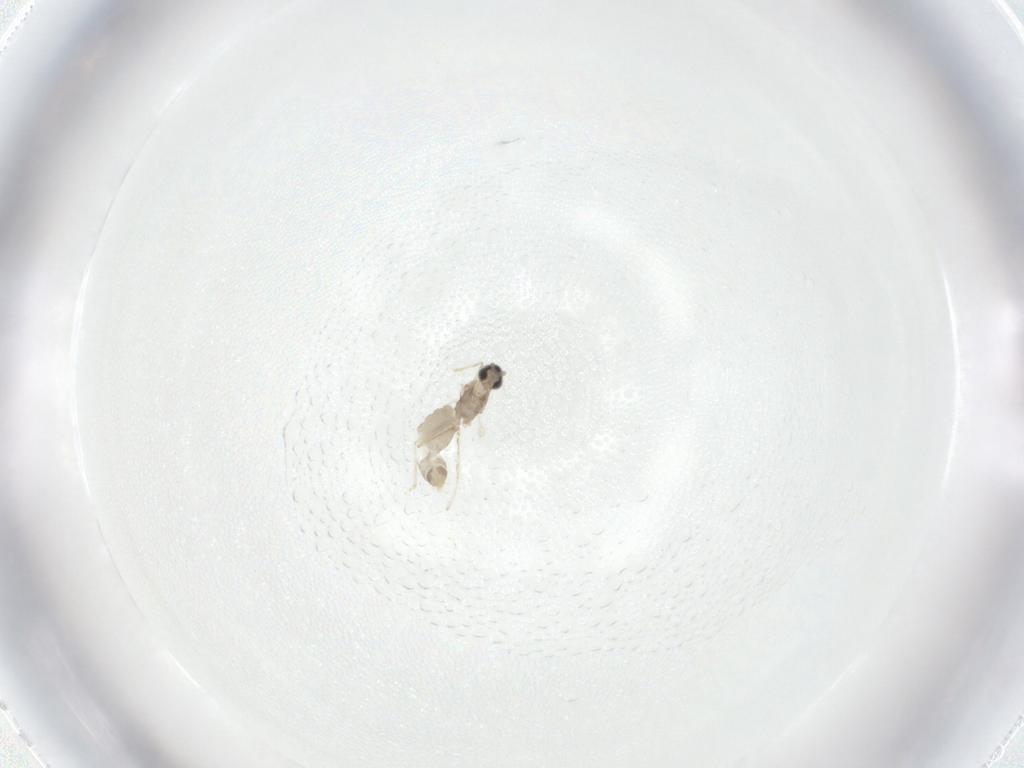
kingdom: Animalia
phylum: Arthropoda
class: Insecta
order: Diptera
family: Cecidomyiidae
